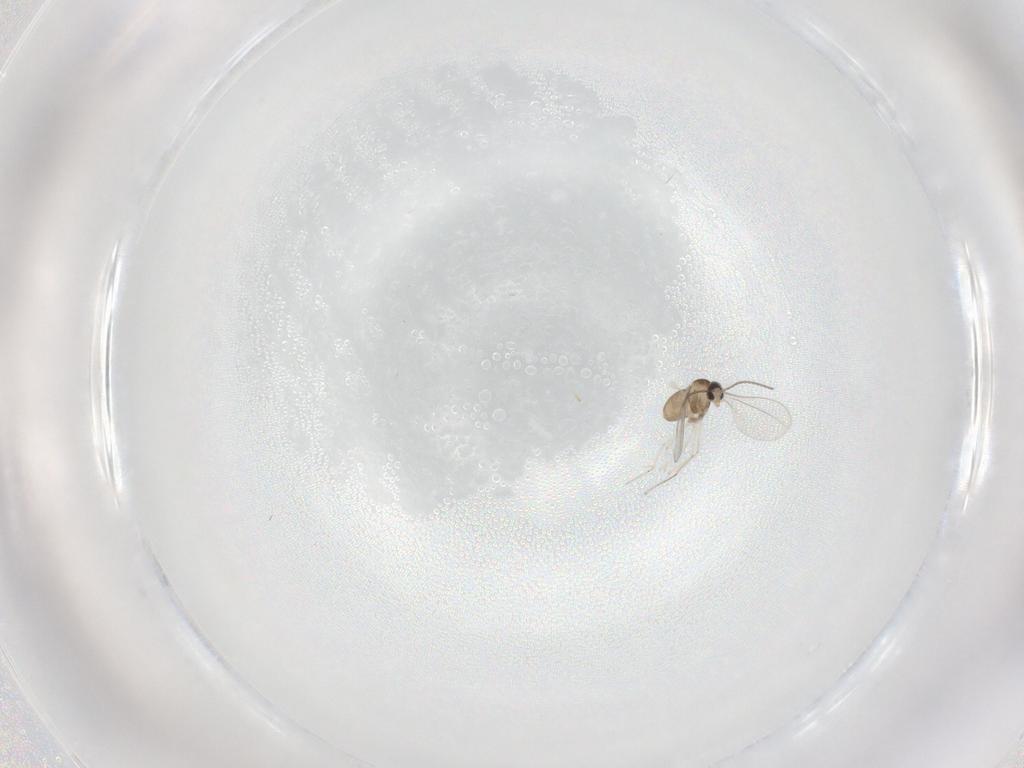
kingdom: Animalia
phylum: Arthropoda
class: Insecta
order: Diptera
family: Cecidomyiidae
